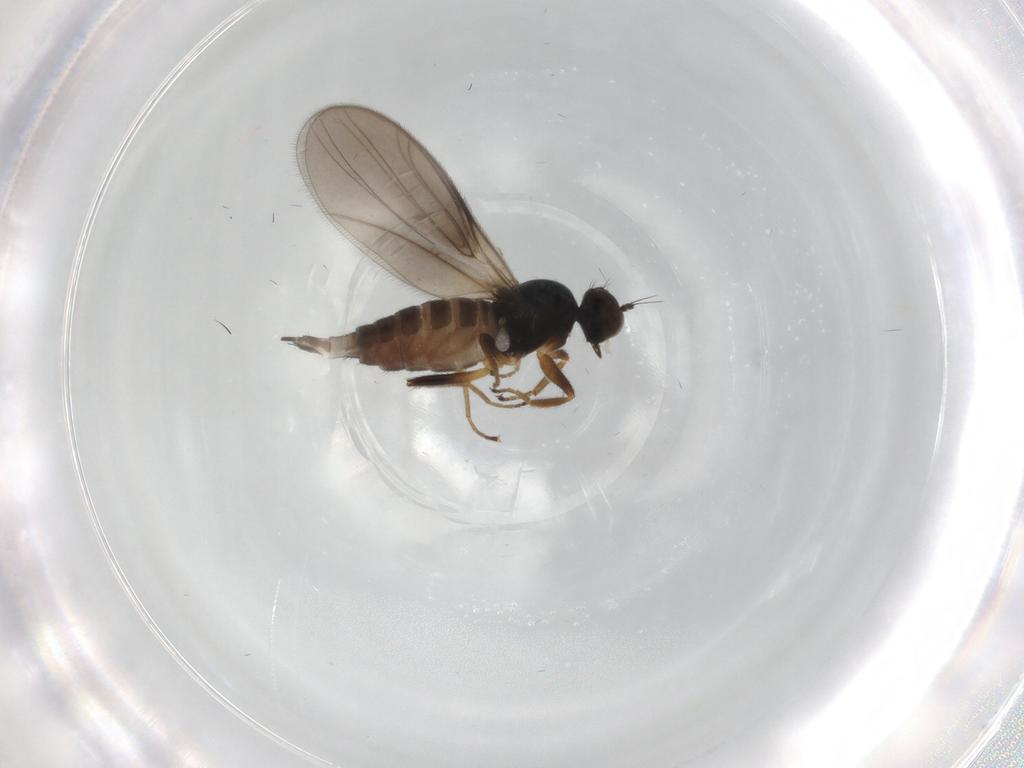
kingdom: Animalia
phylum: Arthropoda
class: Insecta
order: Diptera
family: Hybotidae
